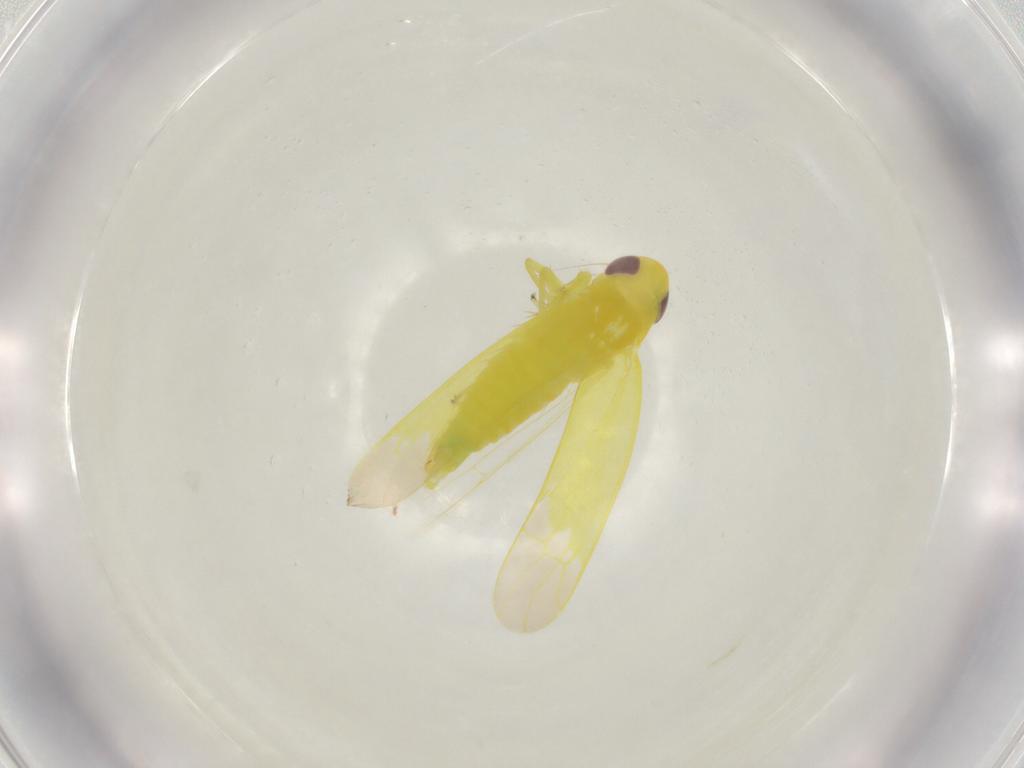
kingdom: Animalia
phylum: Arthropoda
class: Insecta
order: Hemiptera
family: Cicadellidae
